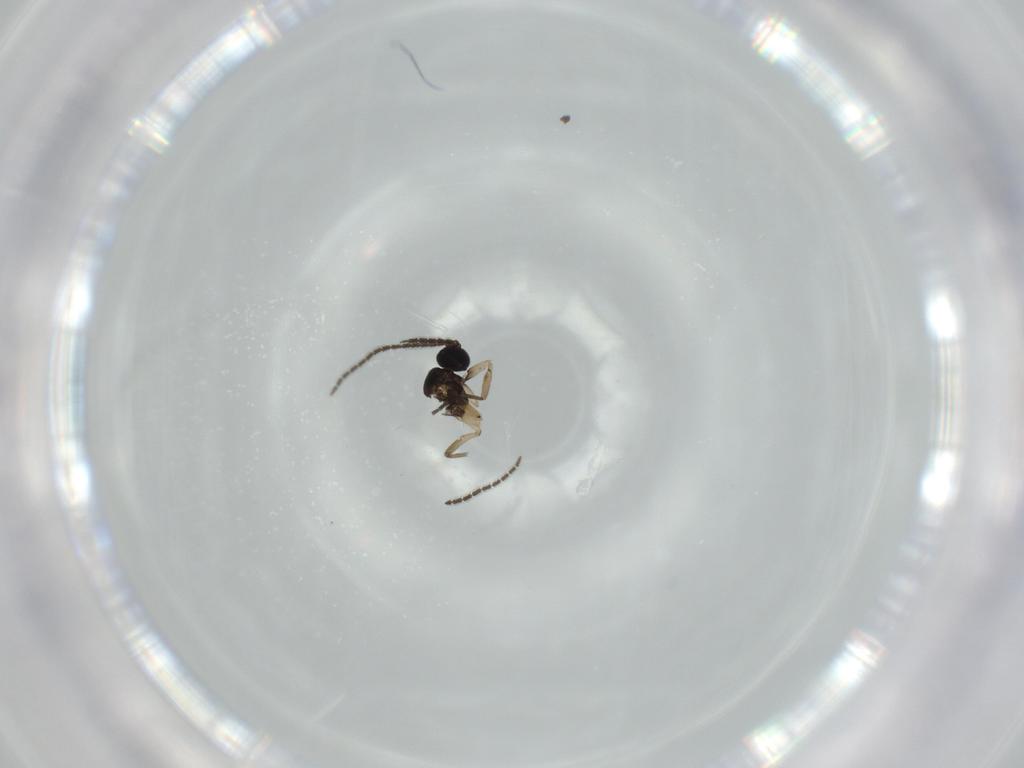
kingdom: Animalia
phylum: Arthropoda
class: Insecta
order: Diptera
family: Sciaridae
